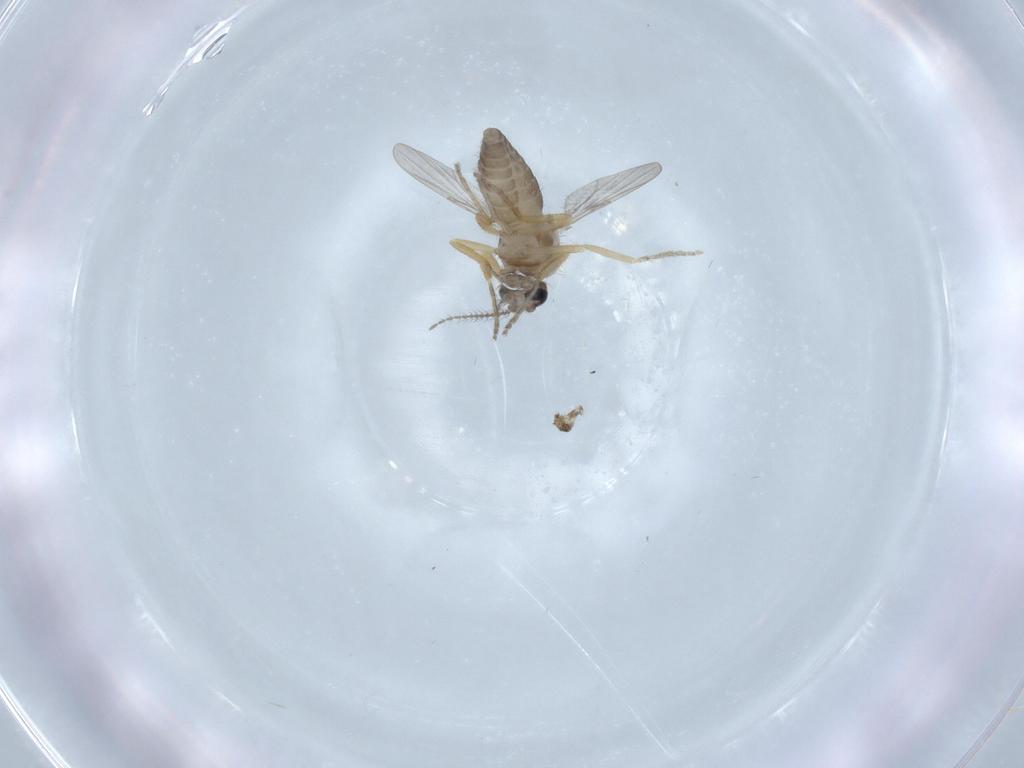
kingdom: Animalia
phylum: Arthropoda
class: Insecta
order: Diptera
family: Ceratopogonidae
